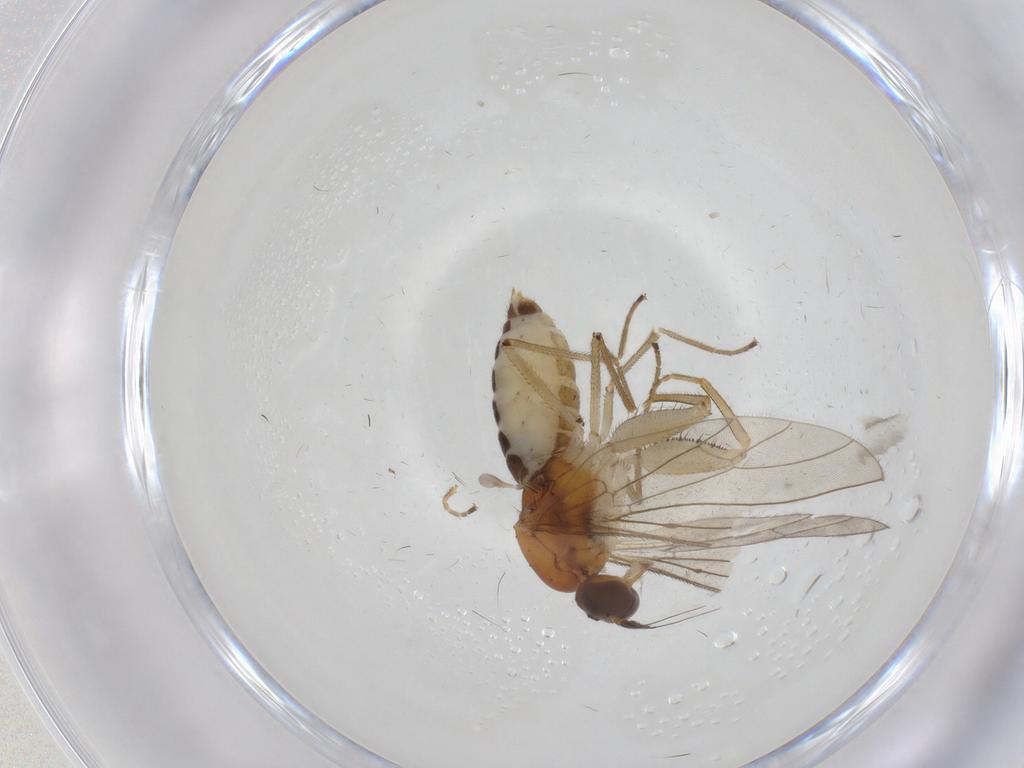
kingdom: Animalia
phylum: Arthropoda
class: Insecta
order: Diptera
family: Empididae
